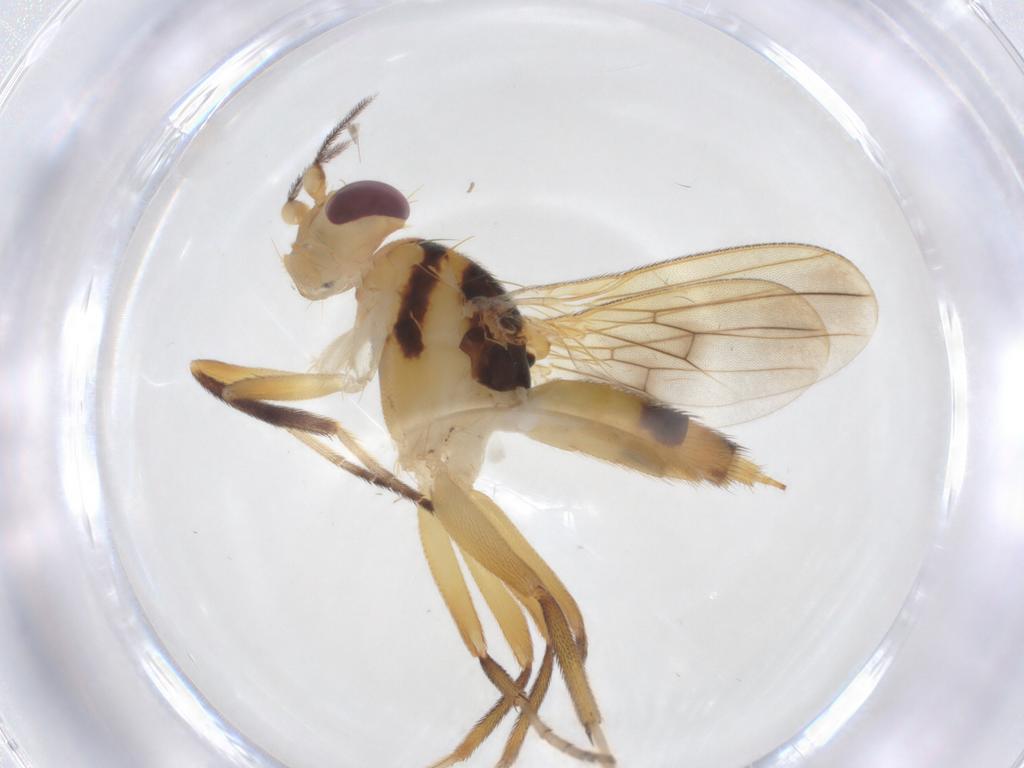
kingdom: Animalia
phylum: Arthropoda
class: Insecta
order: Diptera
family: Clusiidae
